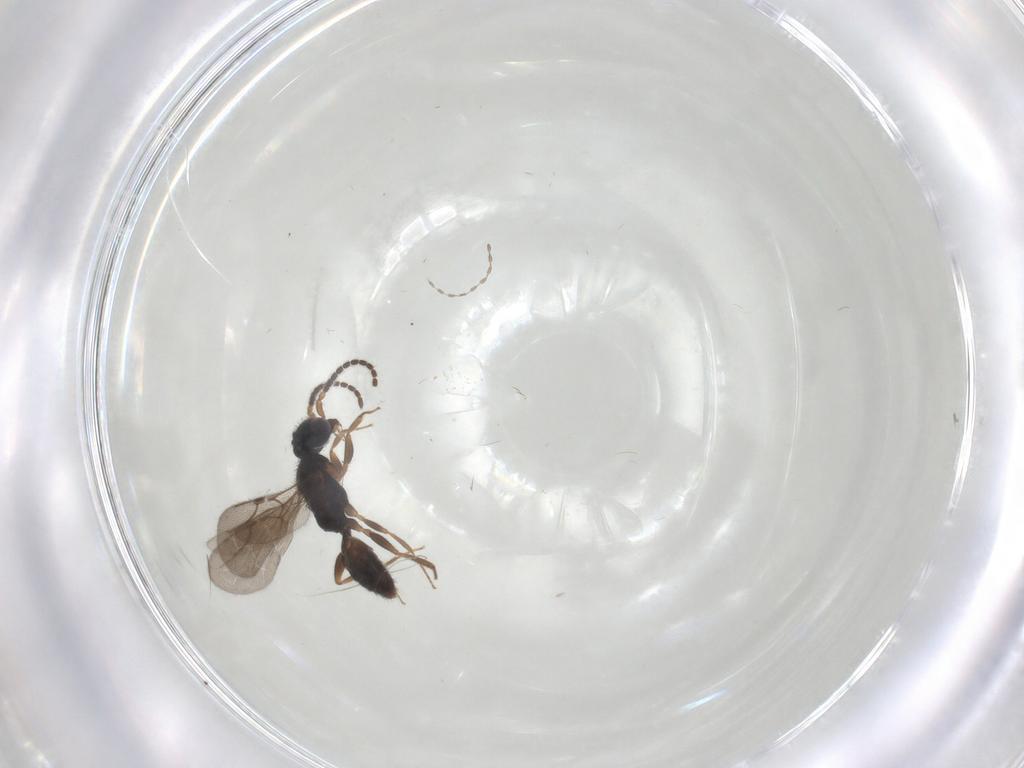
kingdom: Animalia
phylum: Arthropoda
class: Insecta
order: Hymenoptera
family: Bethylidae
